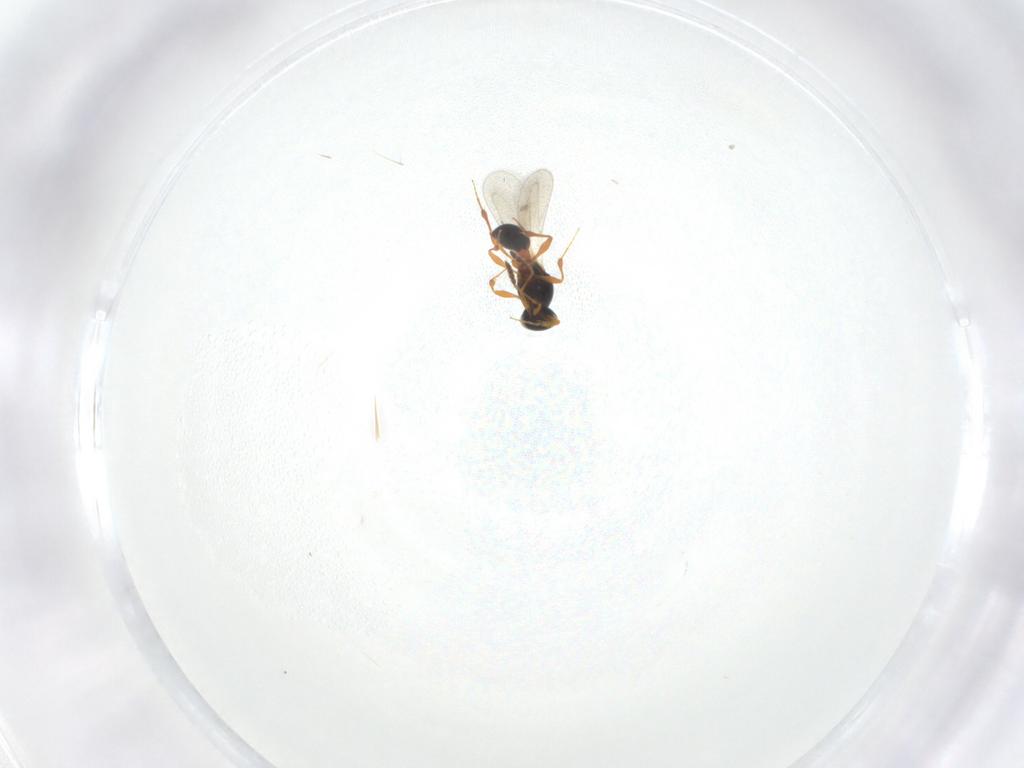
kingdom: Animalia
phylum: Arthropoda
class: Insecta
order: Hymenoptera
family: Platygastridae
